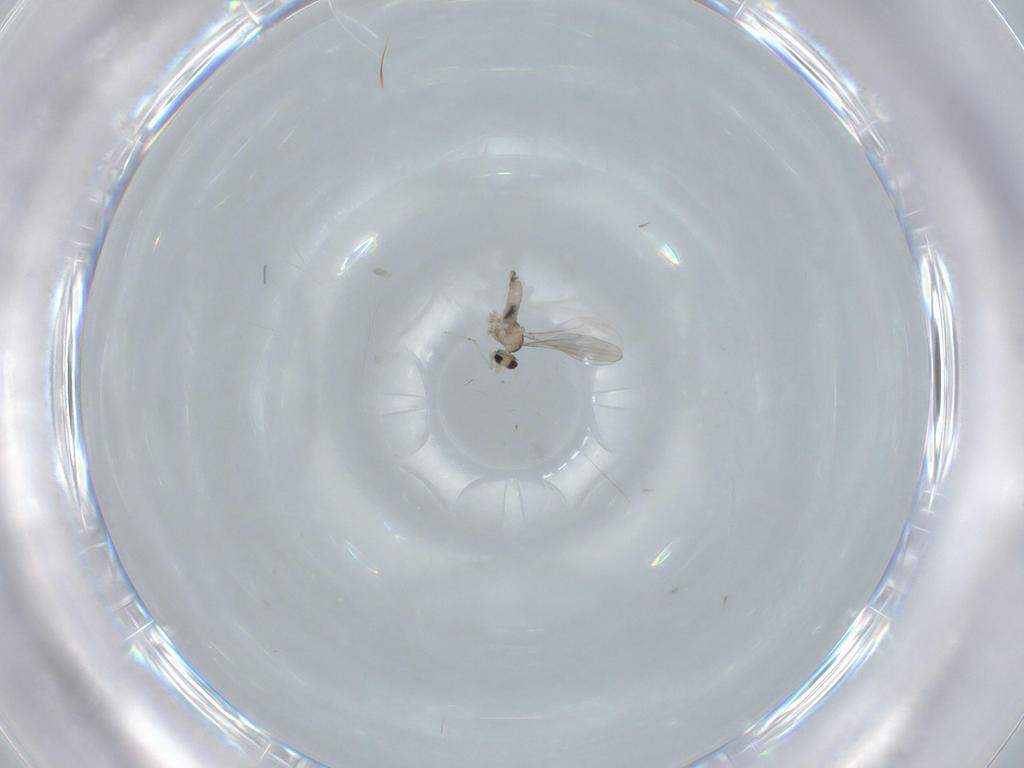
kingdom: Animalia
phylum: Arthropoda
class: Insecta
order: Diptera
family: Cecidomyiidae
